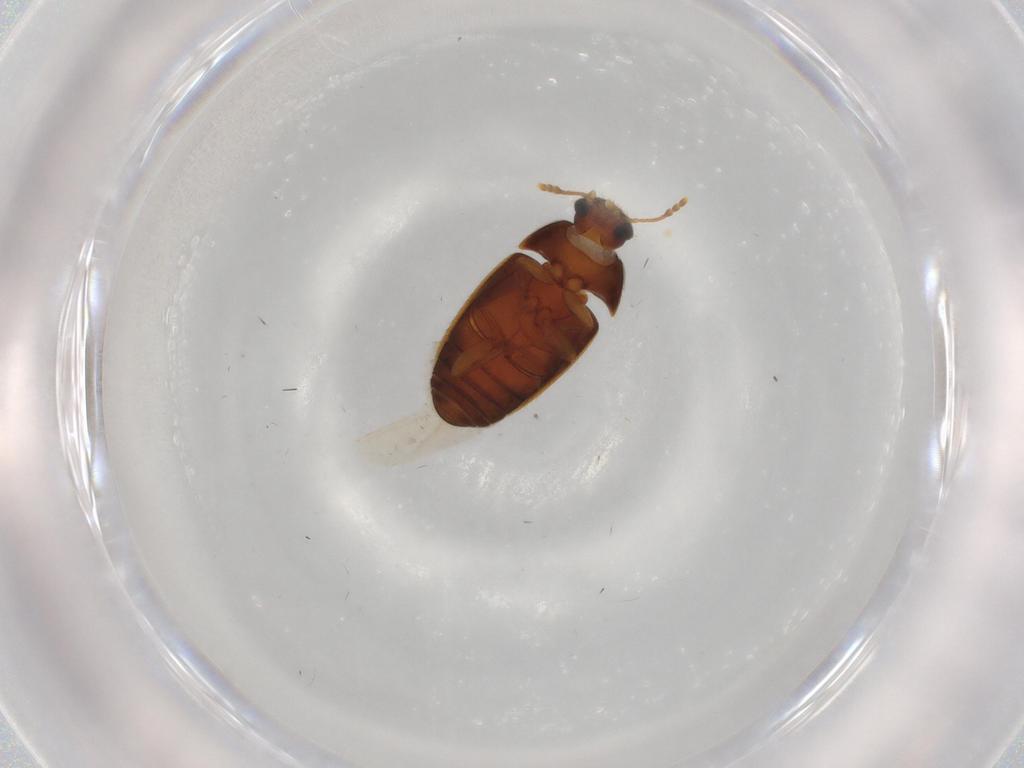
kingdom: Animalia
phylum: Arthropoda
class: Insecta
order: Coleoptera
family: Mycetophagidae
